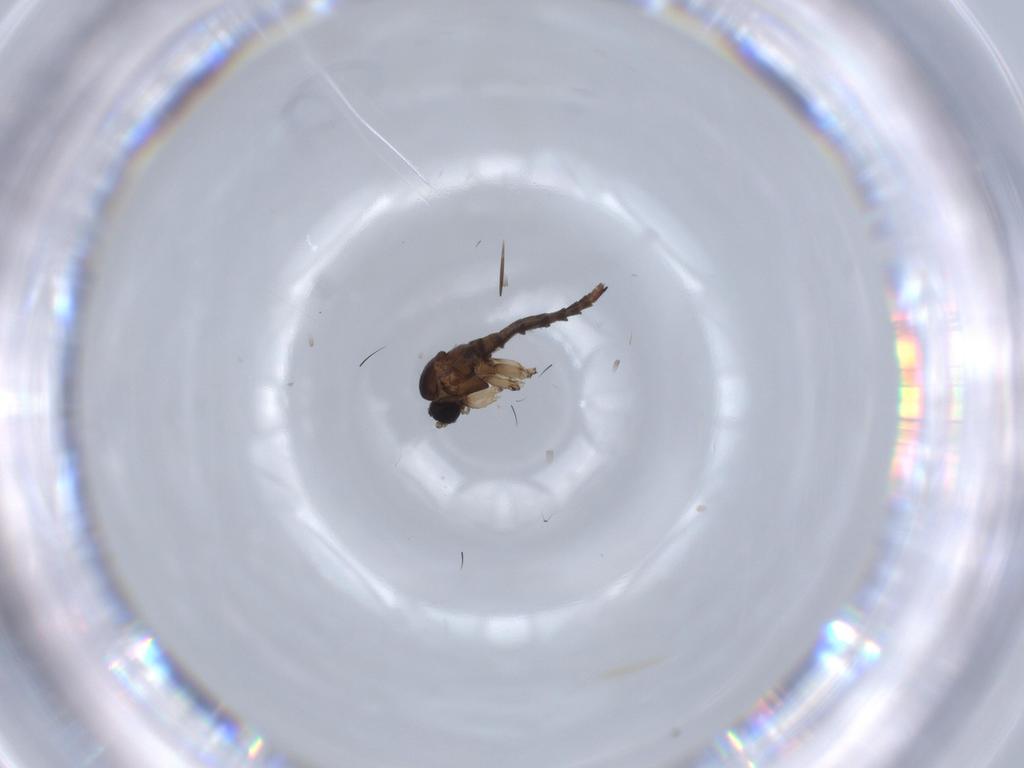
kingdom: Animalia
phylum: Arthropoda
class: Insecta
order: Diptera
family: Sciaridae
